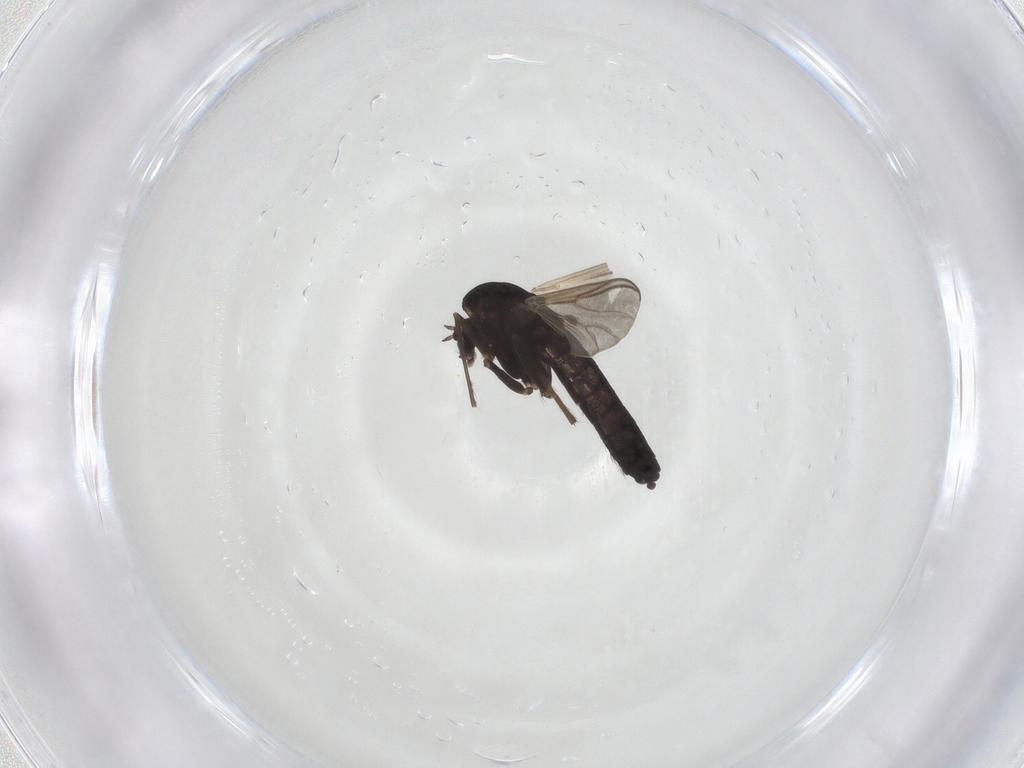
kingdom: Animalia
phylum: Arthropoda
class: Insecta
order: Diptera
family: Chironomidae
